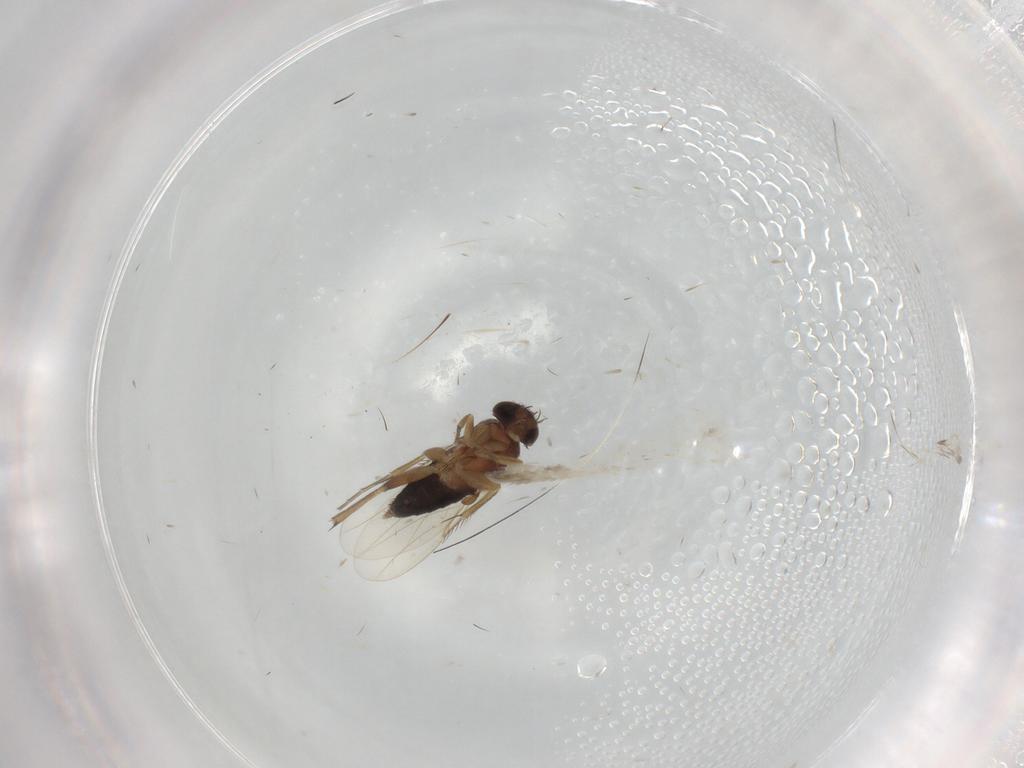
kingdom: Animalia
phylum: Arthropoda
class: Insecta
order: Diptera
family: Phoridae
